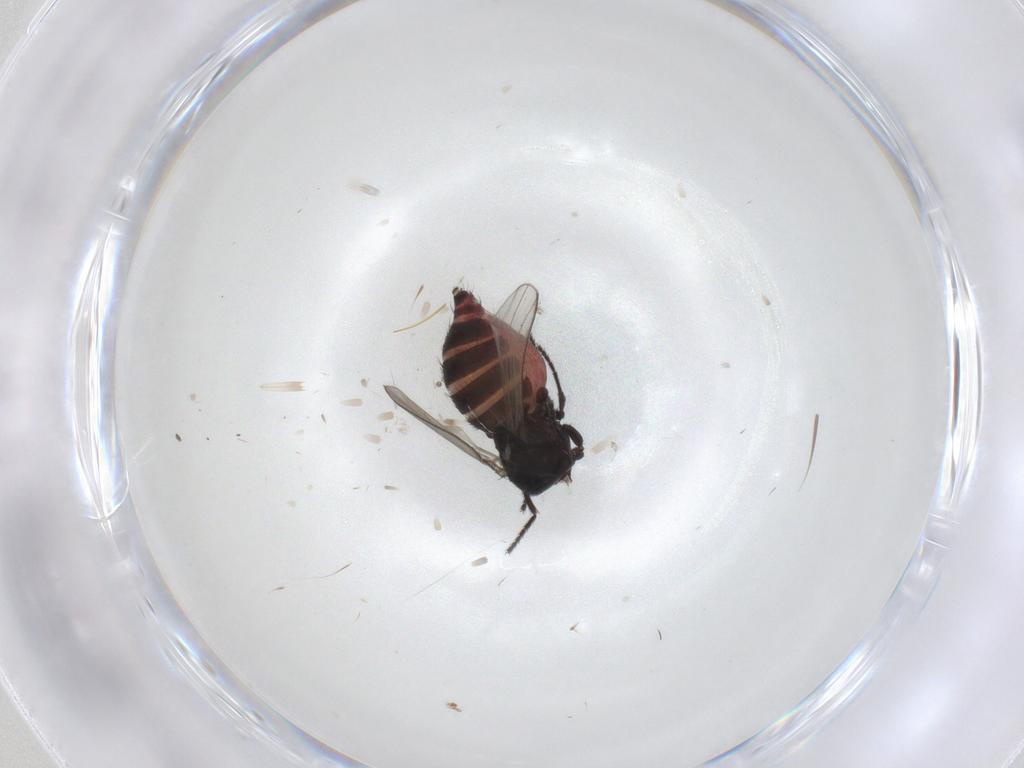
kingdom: Animalia
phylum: Arthropoda
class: Insecta
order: Diptera
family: Milichiidae
